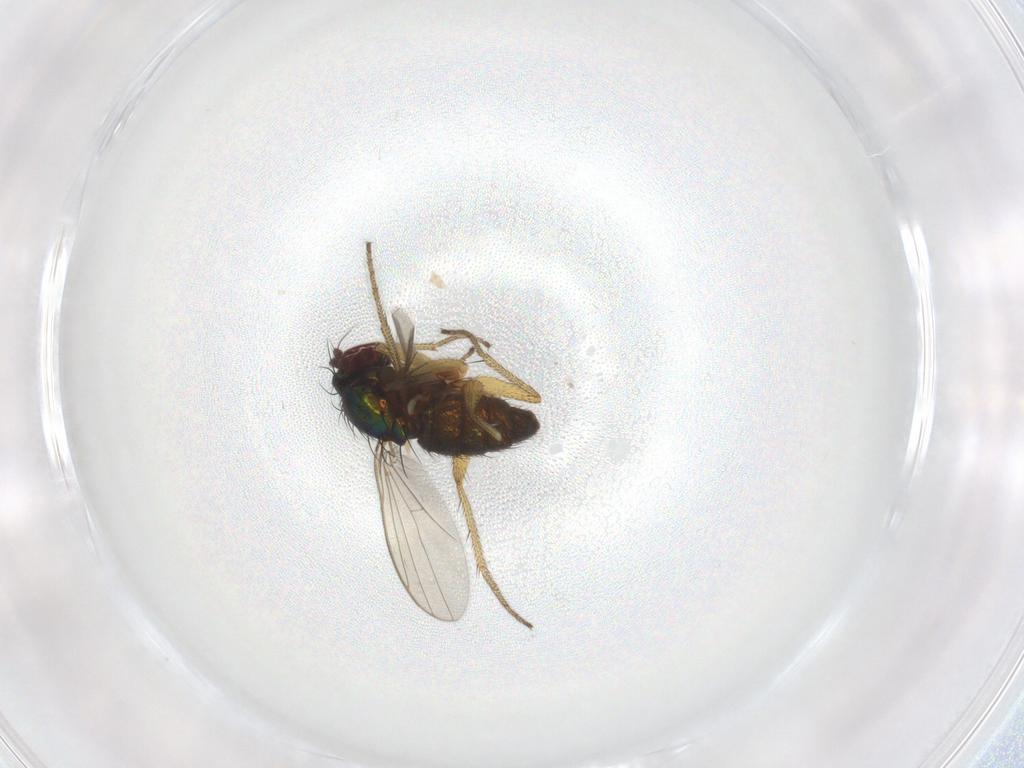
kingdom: Animalia
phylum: Arthropoda
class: Insecta
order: Diptera
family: Dolichopodidae
